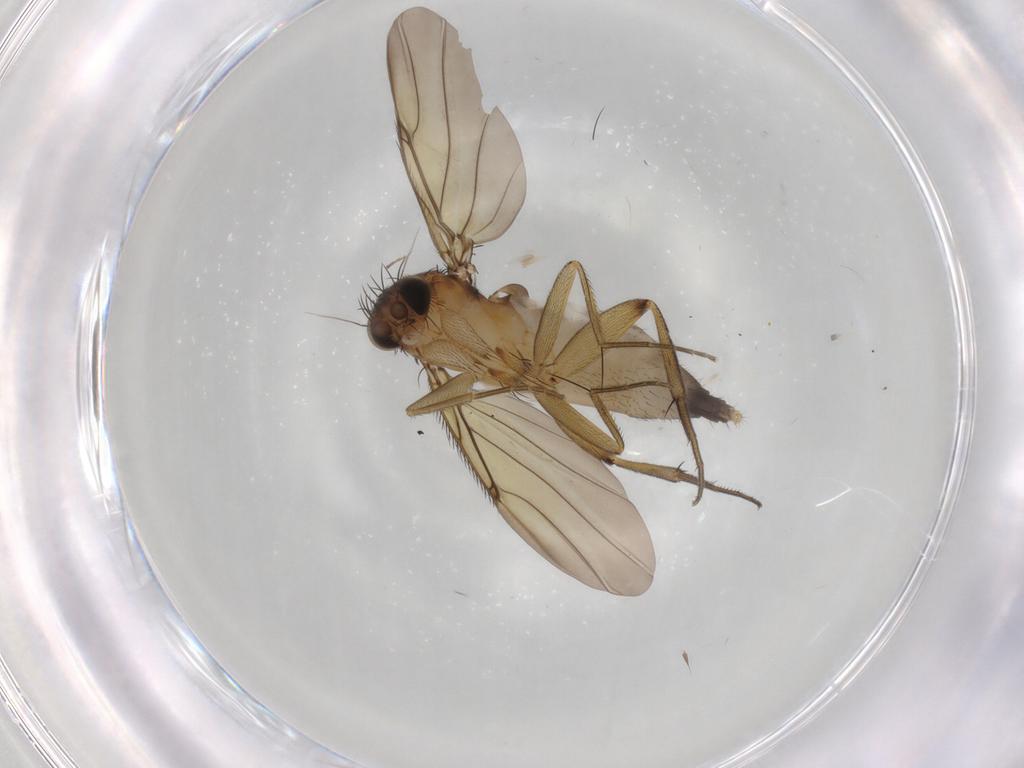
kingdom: Animalia
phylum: Arthropoda
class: Insecta
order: Diptera
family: Phoridae
